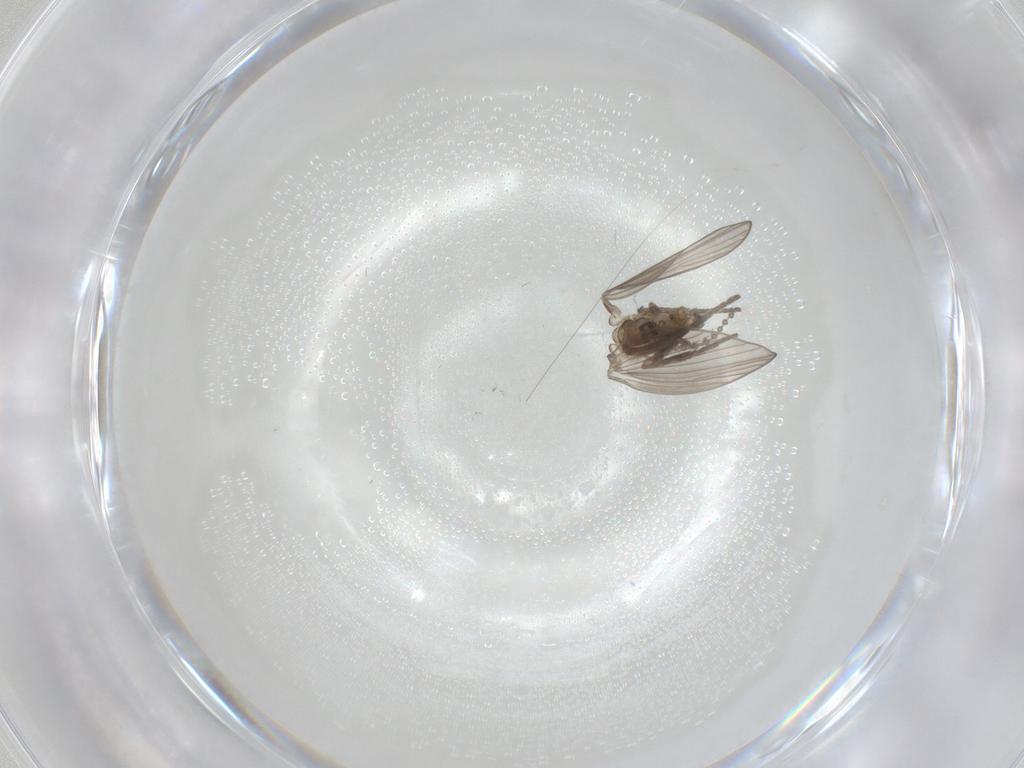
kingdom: Animalia
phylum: Arthropoda
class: Insecta
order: Diptera
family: Psychodidae
